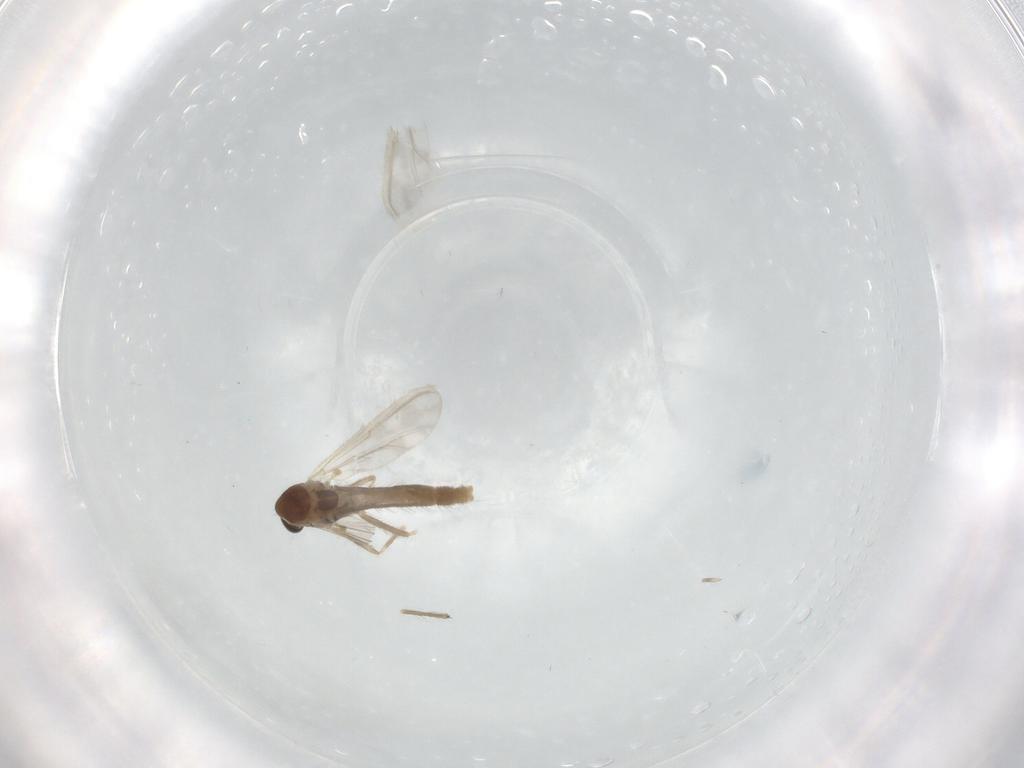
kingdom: Animalia
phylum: Arthropoda
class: Insecta
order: Diptera
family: Chironomidae
